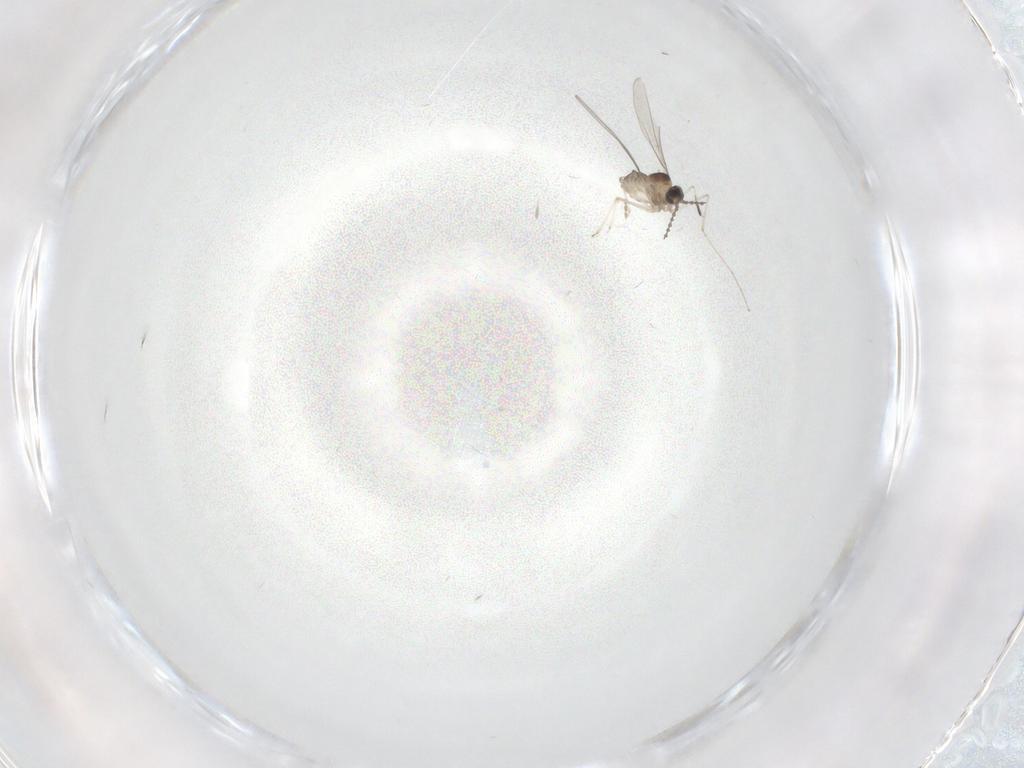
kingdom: Animalia
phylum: Arthropoda
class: Insecta
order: Diptera
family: Cecidomyiidae
